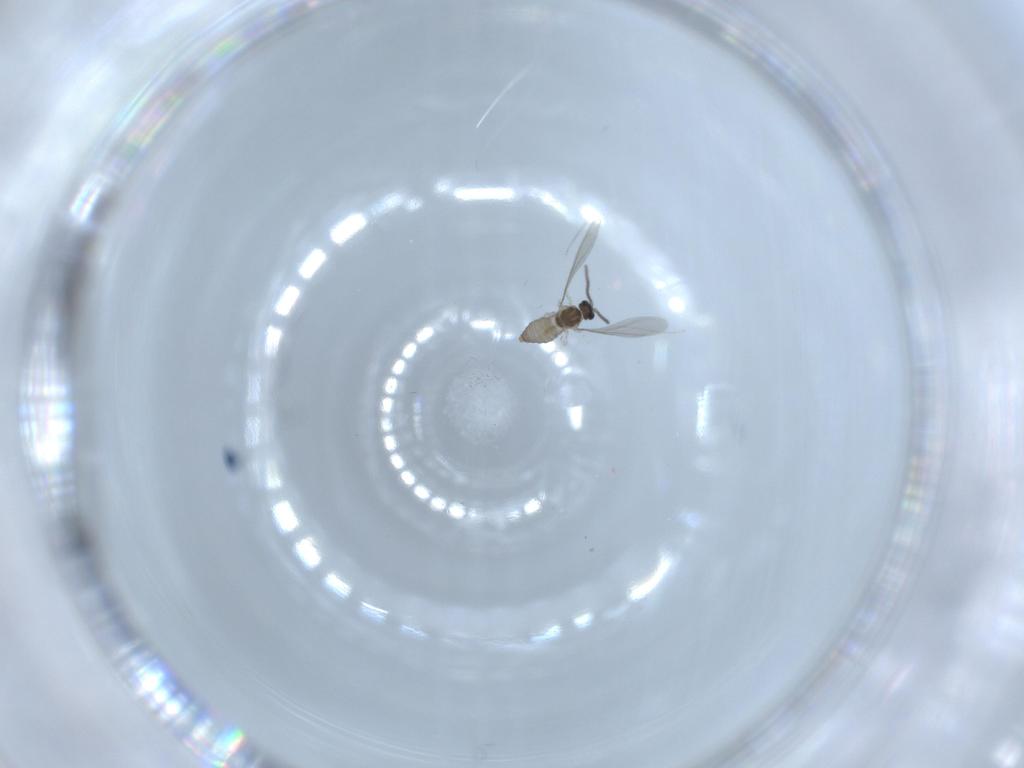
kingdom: Animalia
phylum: Arthropoda
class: Insecta
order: Diptera
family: Cecidomyiidae
